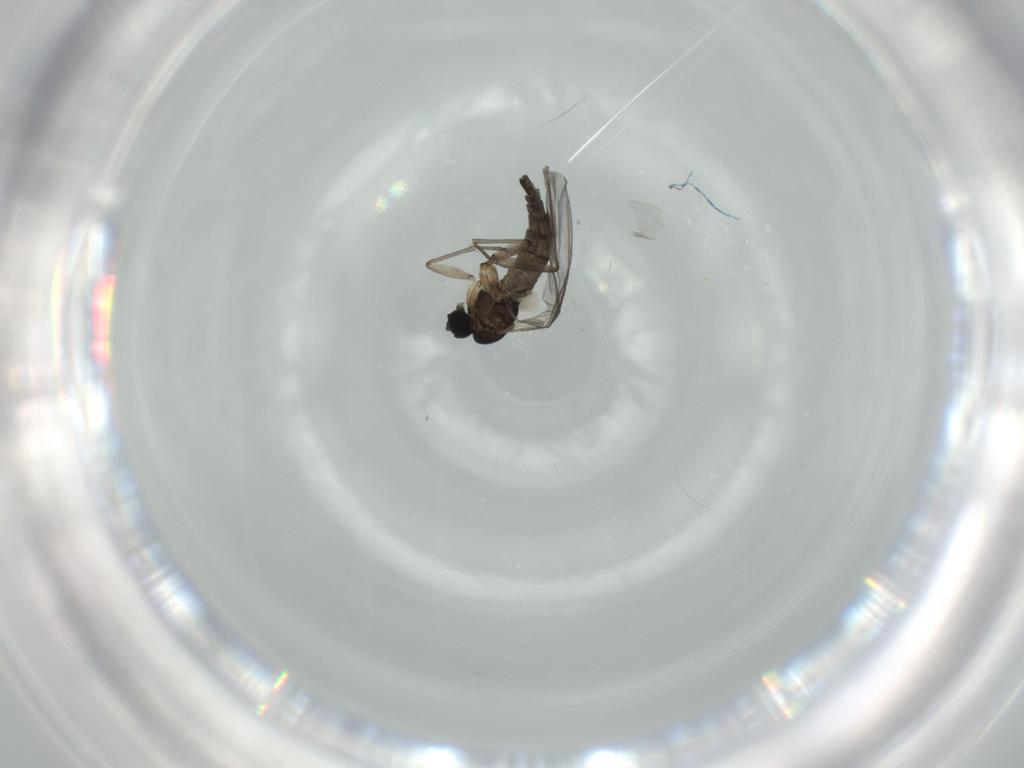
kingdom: Animalia
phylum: Arthropoda
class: Insecta
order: Diptera
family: Sciaridae
